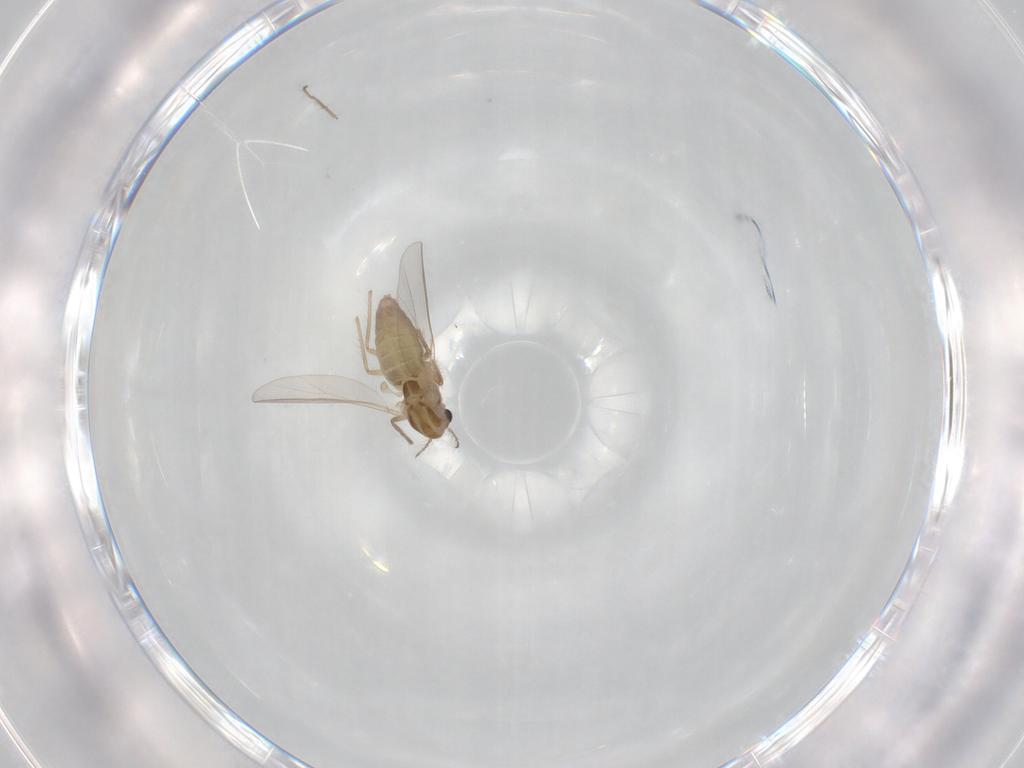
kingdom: Animalia
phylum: Arthropoda
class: Insecta
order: Diptera
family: Chironomidae
